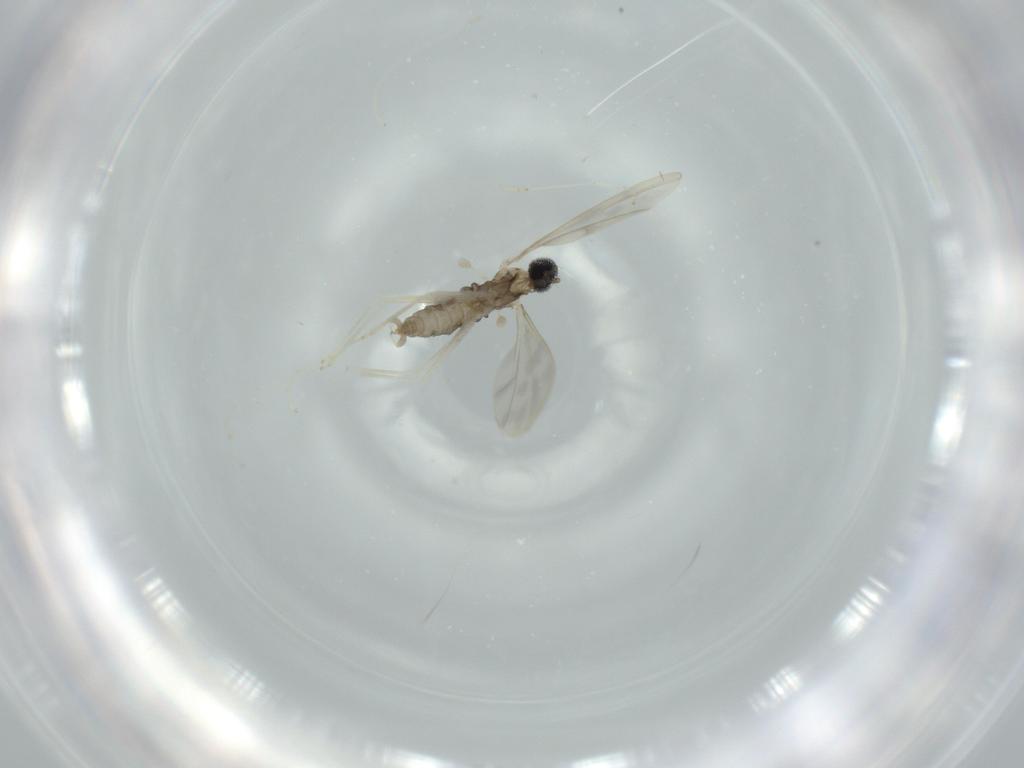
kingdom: Animalia
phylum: Arthropoda
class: Insecta
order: Diptera
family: Cecidomyiidae
